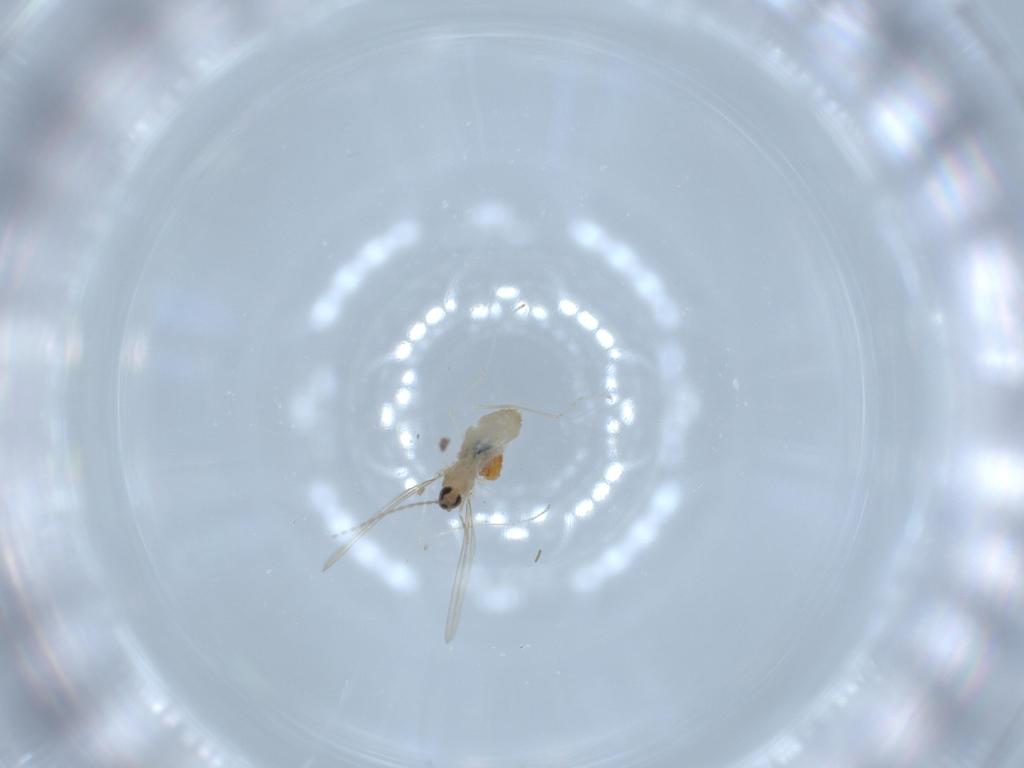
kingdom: Animalia
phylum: Arthropoda
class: Insecta
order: Diptera
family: Cecidomyiidae
